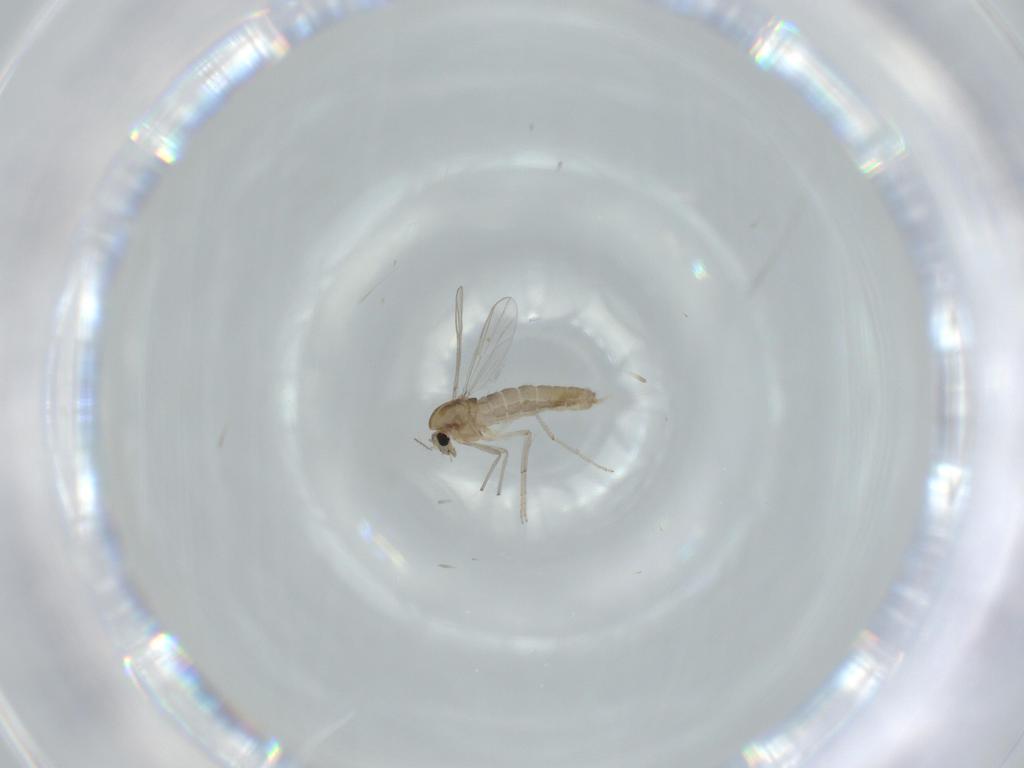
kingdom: Animalia
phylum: Arthropoda
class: Insecta
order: Diptera
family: Chironomidae
